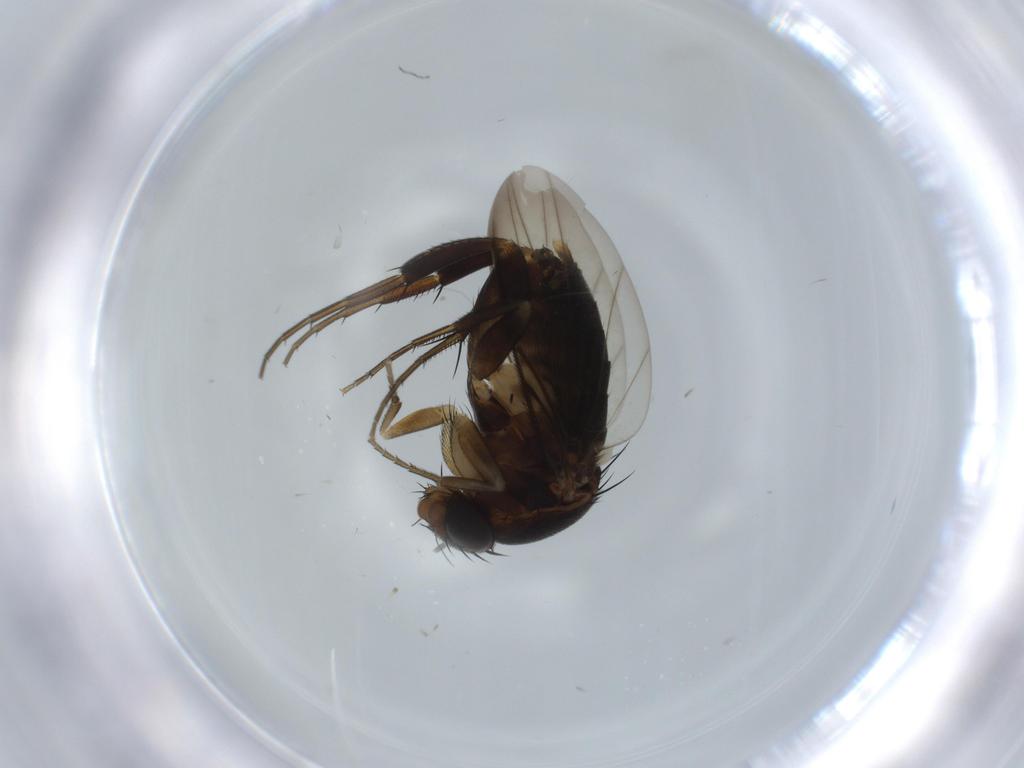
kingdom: Animalia
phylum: Arthropoda
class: Insecta
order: Diptera
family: Phoridae
